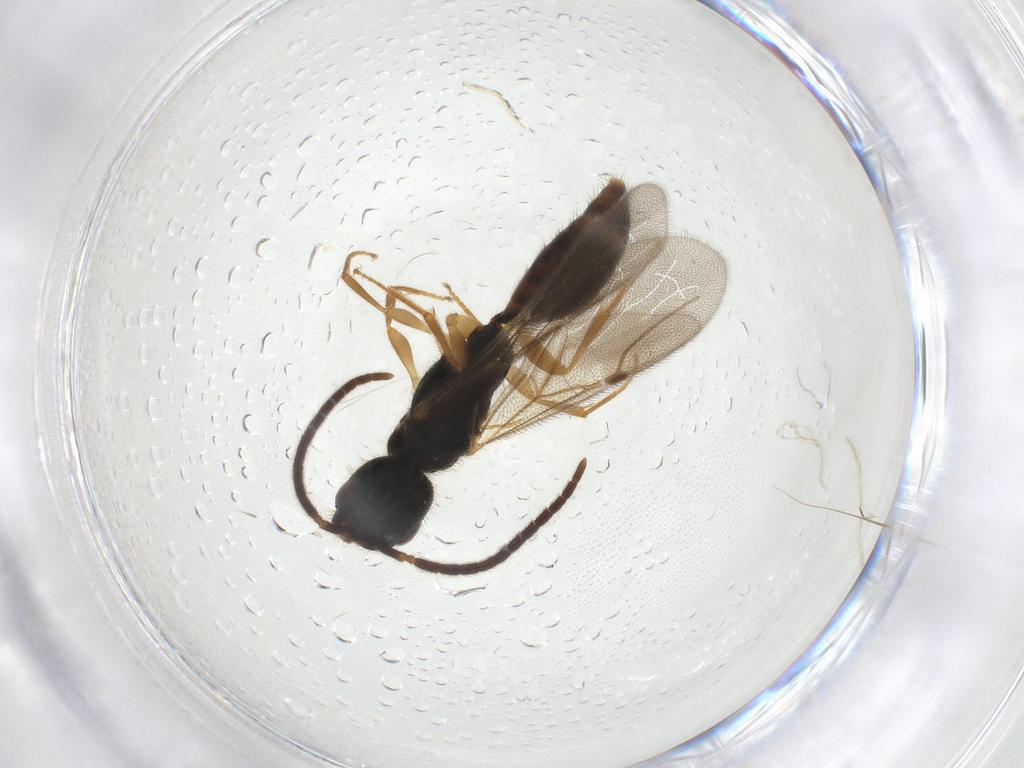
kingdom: Animalia
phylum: Arthropoda
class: Insecta
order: Hymenoptera
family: Bethylidae
